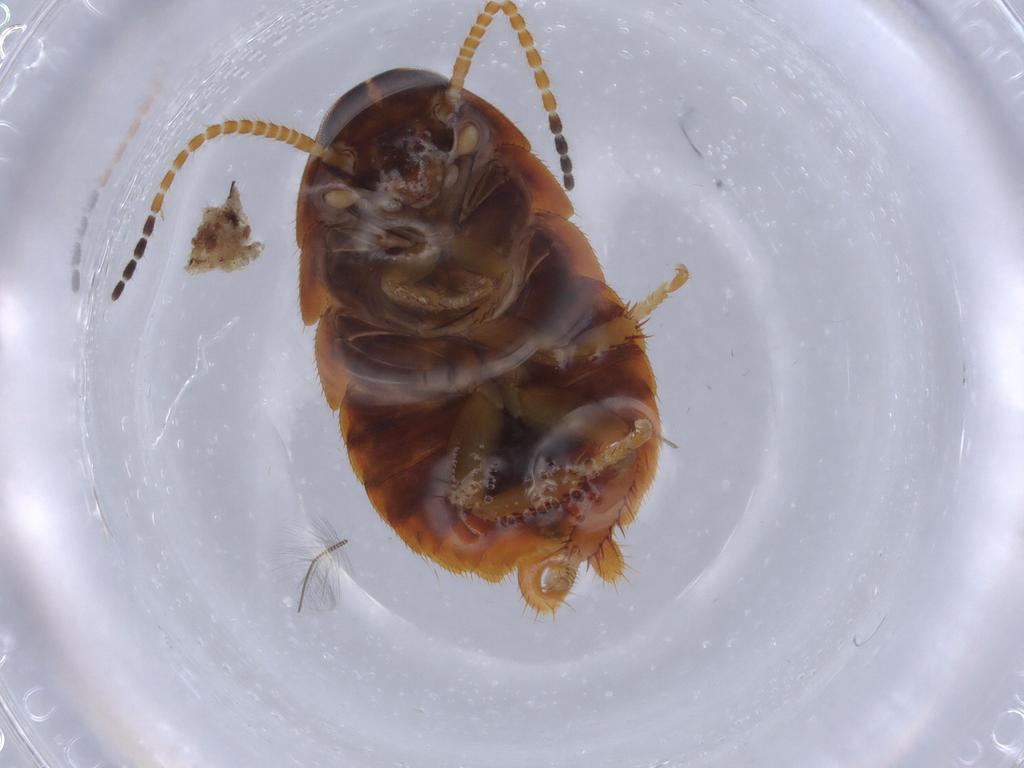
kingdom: Animalia
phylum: Arthropoda
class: Insecta
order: Blattodea
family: Ectobiidae
